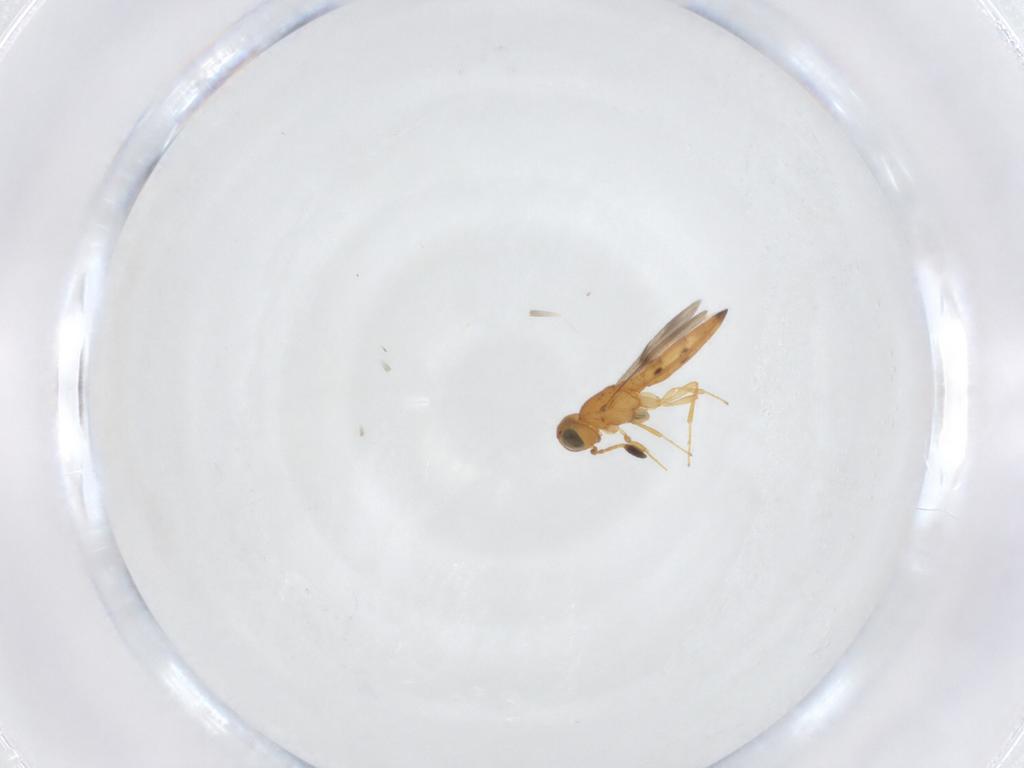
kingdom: Animalia
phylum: Arthropoda
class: Insecta
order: Hymenoptera
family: Scelionidae
